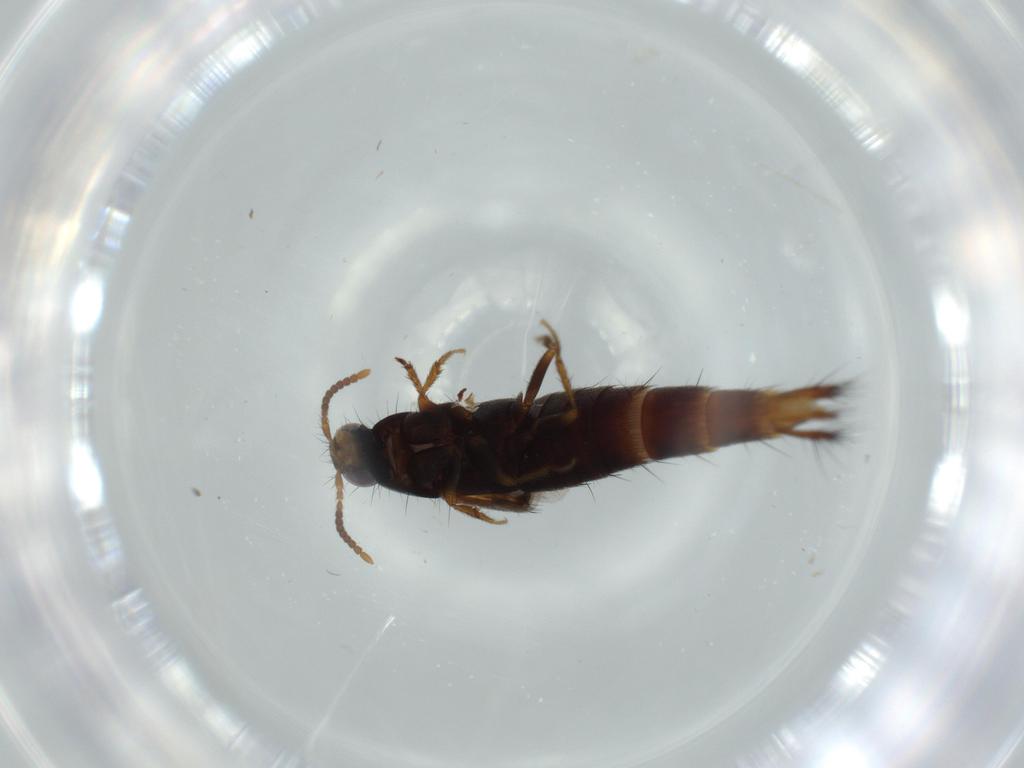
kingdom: Animalia
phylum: Arthropoda
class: Insecta
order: Coleoptera
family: Staphylinidae
